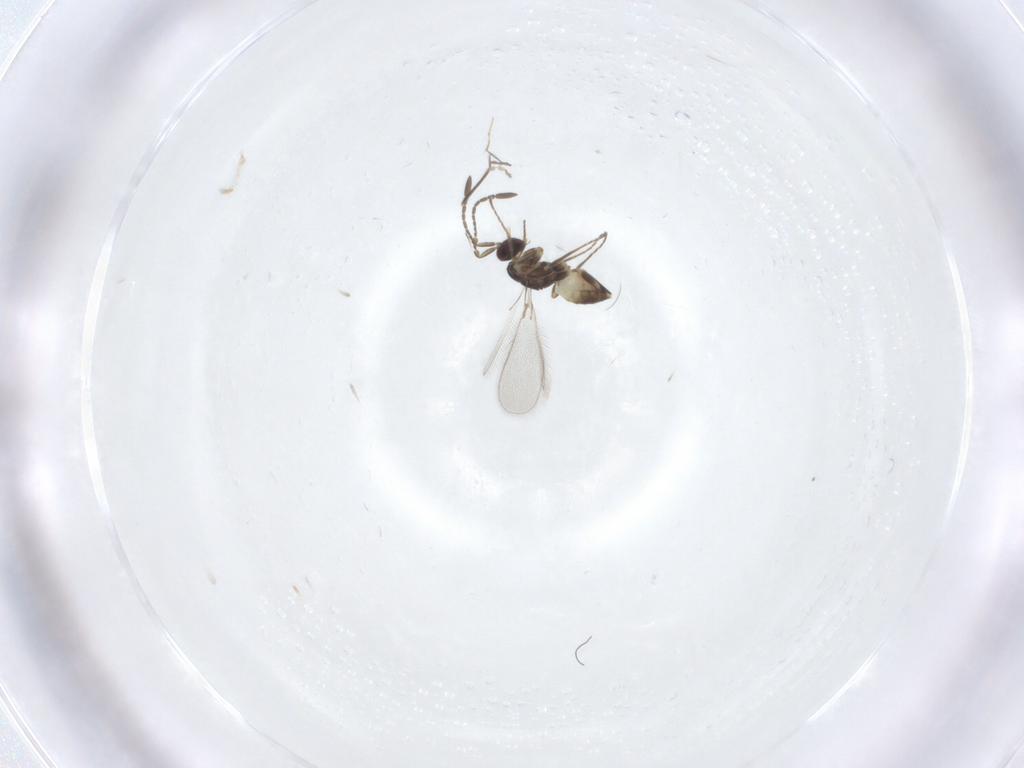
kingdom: Animalia
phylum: Arthropoda
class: Insecta
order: Hymenoptera
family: Mymaridae
